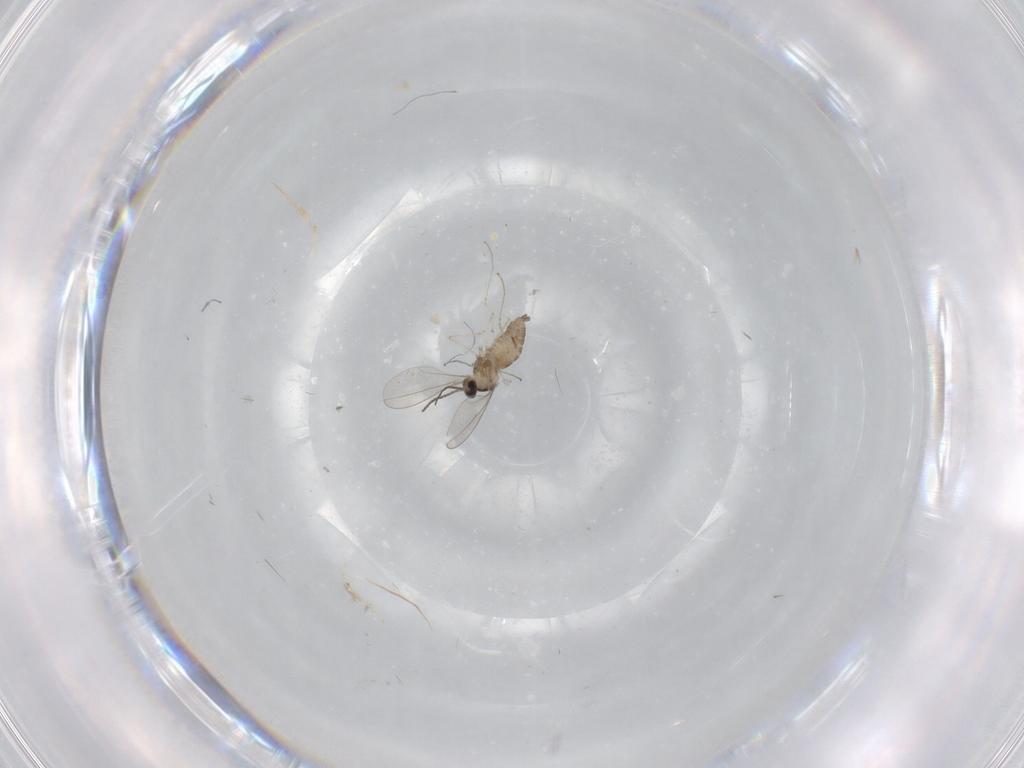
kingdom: Animalia
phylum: Arthropoda
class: Insecta
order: Diptera
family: Cecidomyiidae
